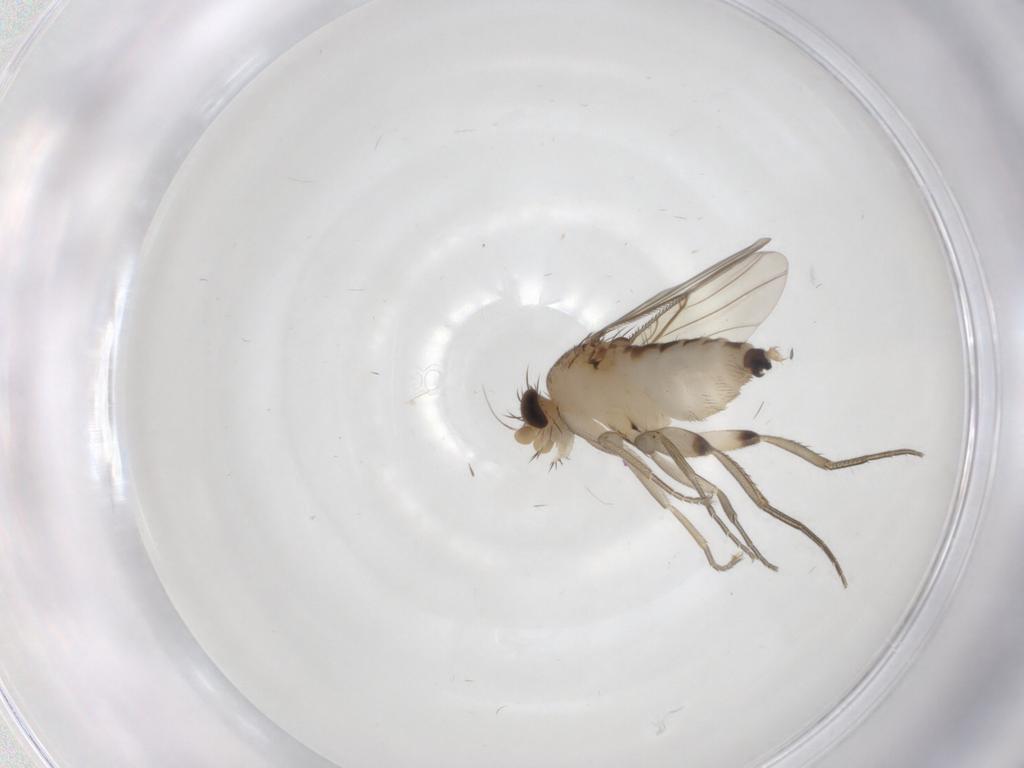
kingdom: Animalia
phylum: Arthropoda
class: Insecta
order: Diptera
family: Phoridae
